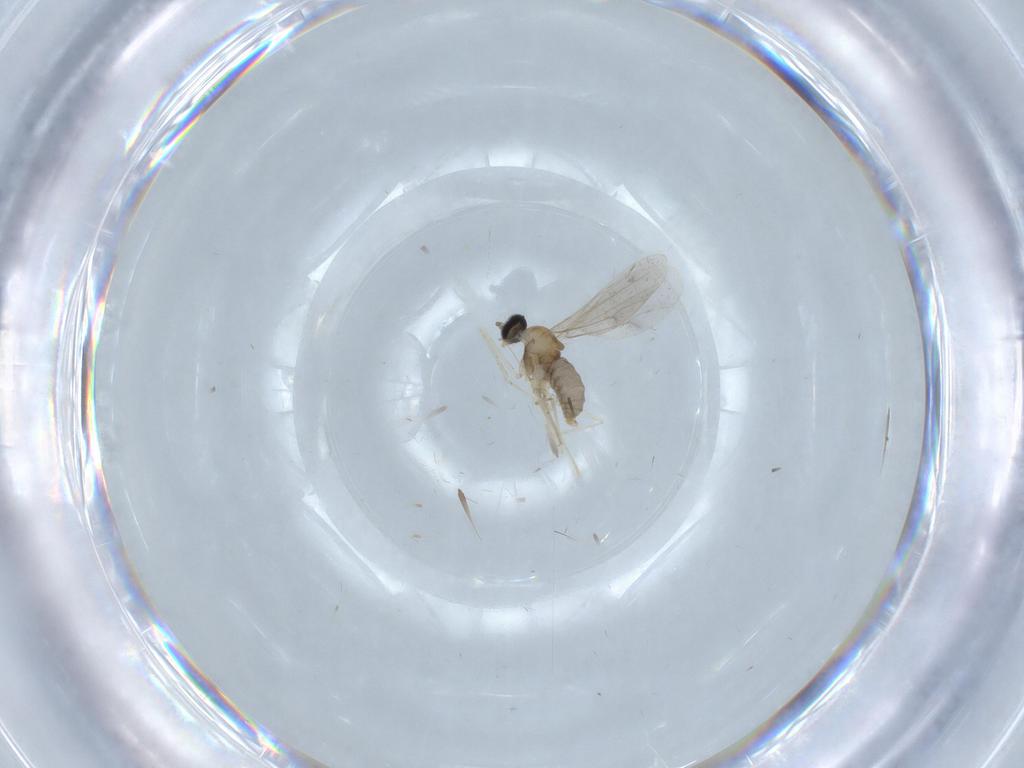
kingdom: Animalia
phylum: Arthropoda
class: Insecta
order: Diptera
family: Cecidomyiidae
